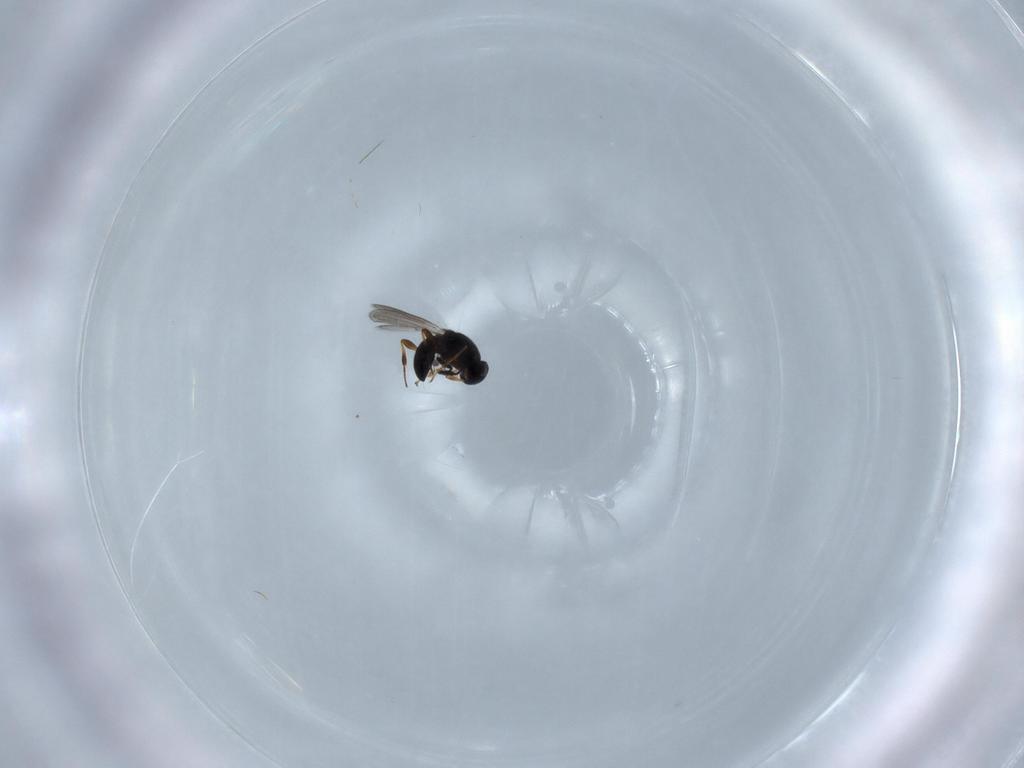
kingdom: Animalia
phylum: Arthropoda
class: Insecta
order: Hymenoptera
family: Platygastridae
